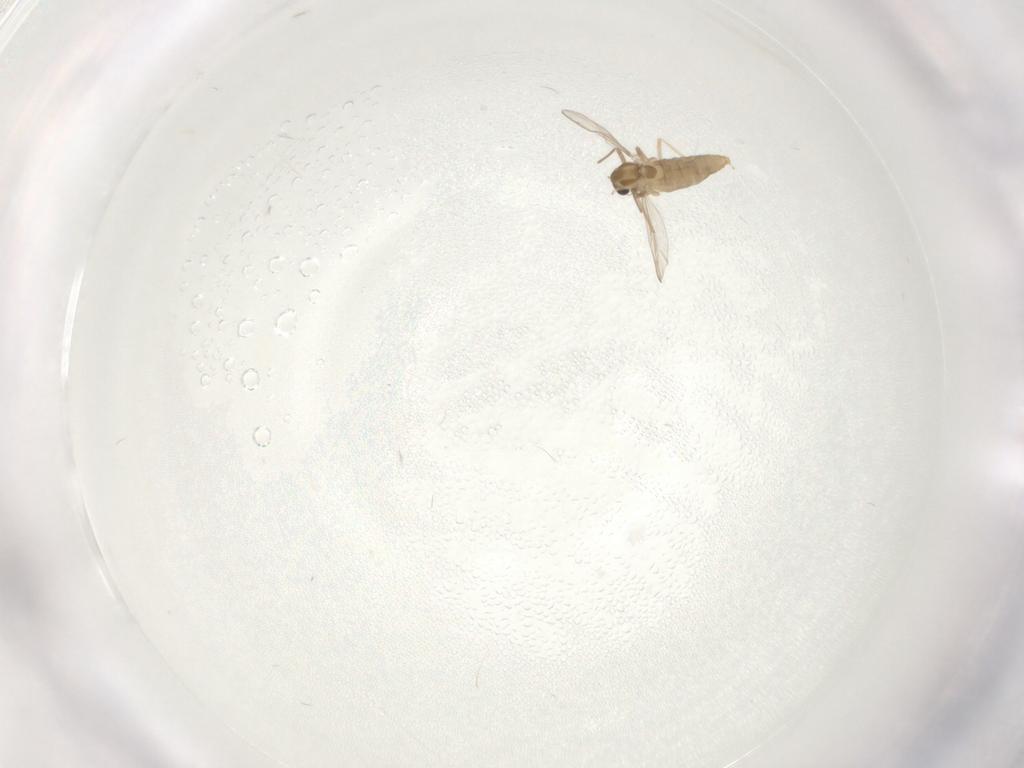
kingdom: Animalia
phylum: Arthropoda
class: Insecta
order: Diptera
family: Chironomidae
